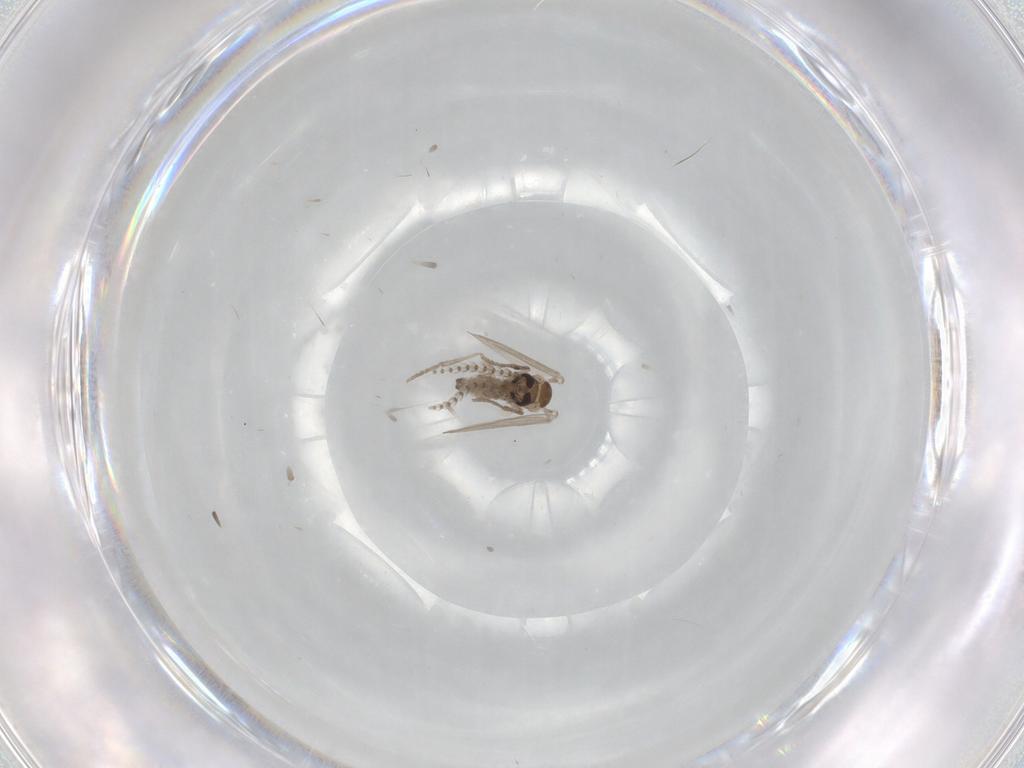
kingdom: Animalia
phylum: Arthropoda
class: Insecta
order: Diptera
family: Psychodidae
